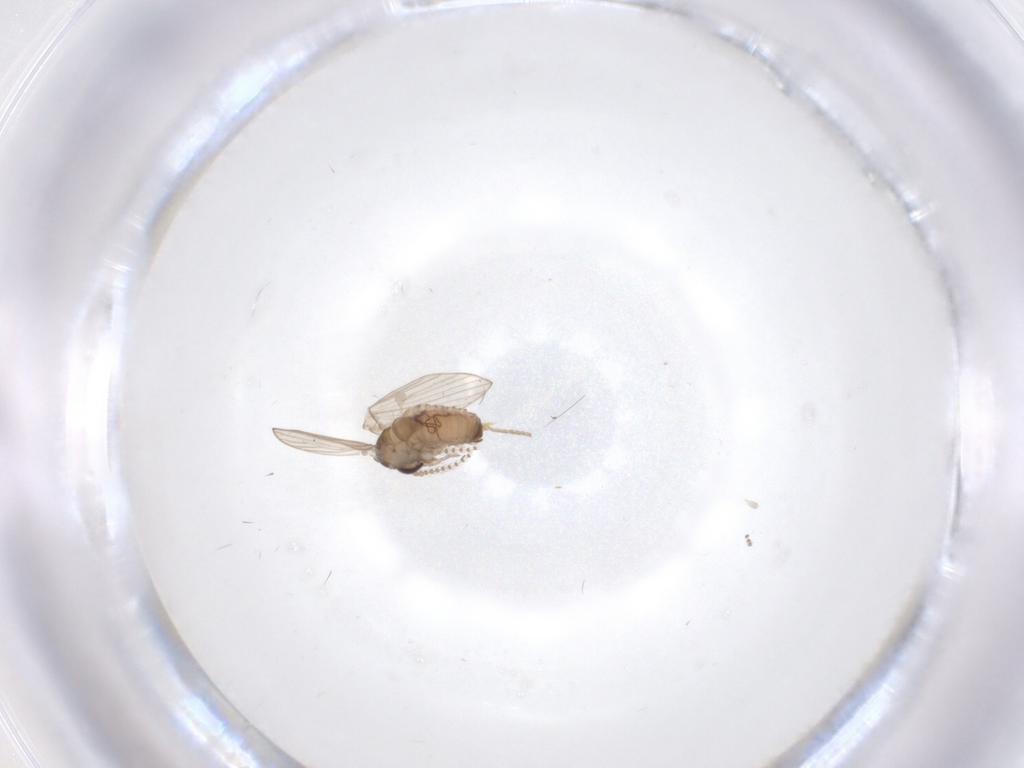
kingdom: Animalia
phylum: Arthropoda
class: Insecta
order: Diptera
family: Psychodidae
